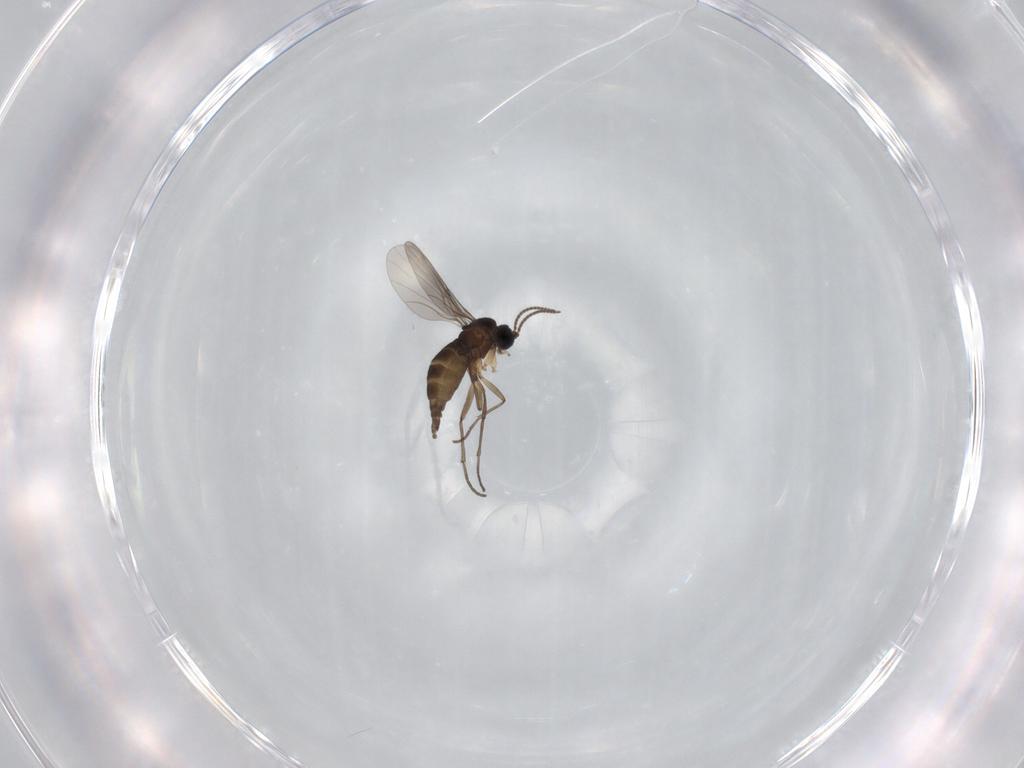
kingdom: Animalia
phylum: Arthropoda
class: Insecta
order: Diptera
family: Sciaridae
